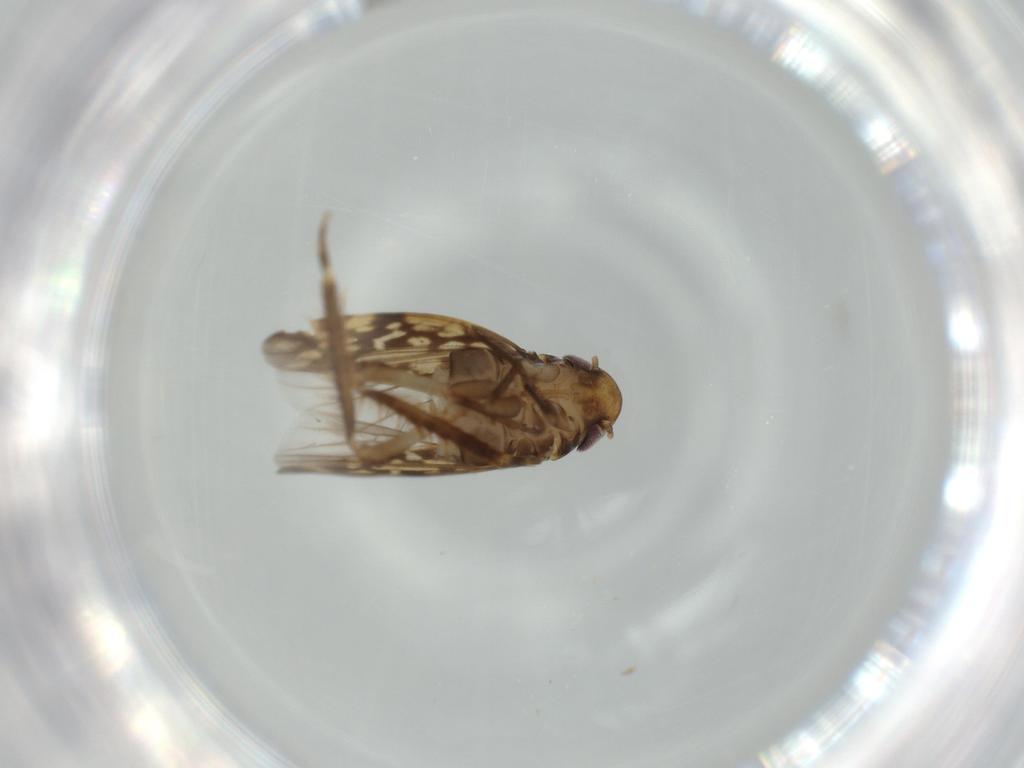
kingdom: Animalia
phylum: Arthropoda
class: Insecta
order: Hemiptera
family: Cicadellidae
